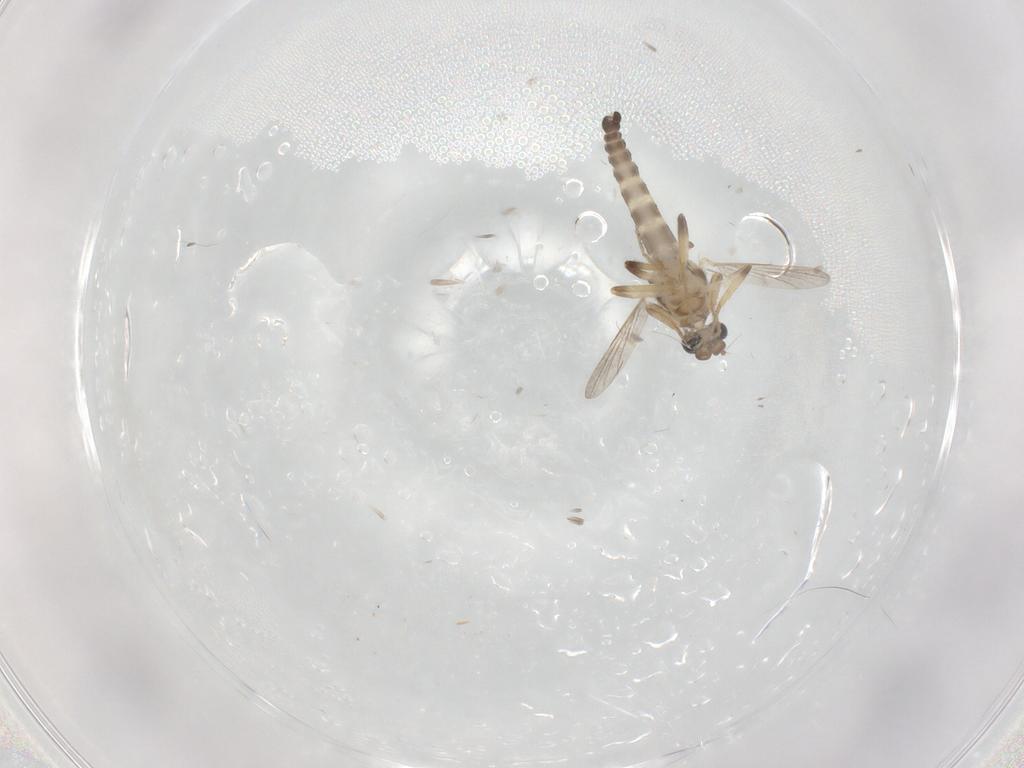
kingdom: Animalia
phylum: Arthropoda
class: Insecta
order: Diptera
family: Ceratopogonidae
